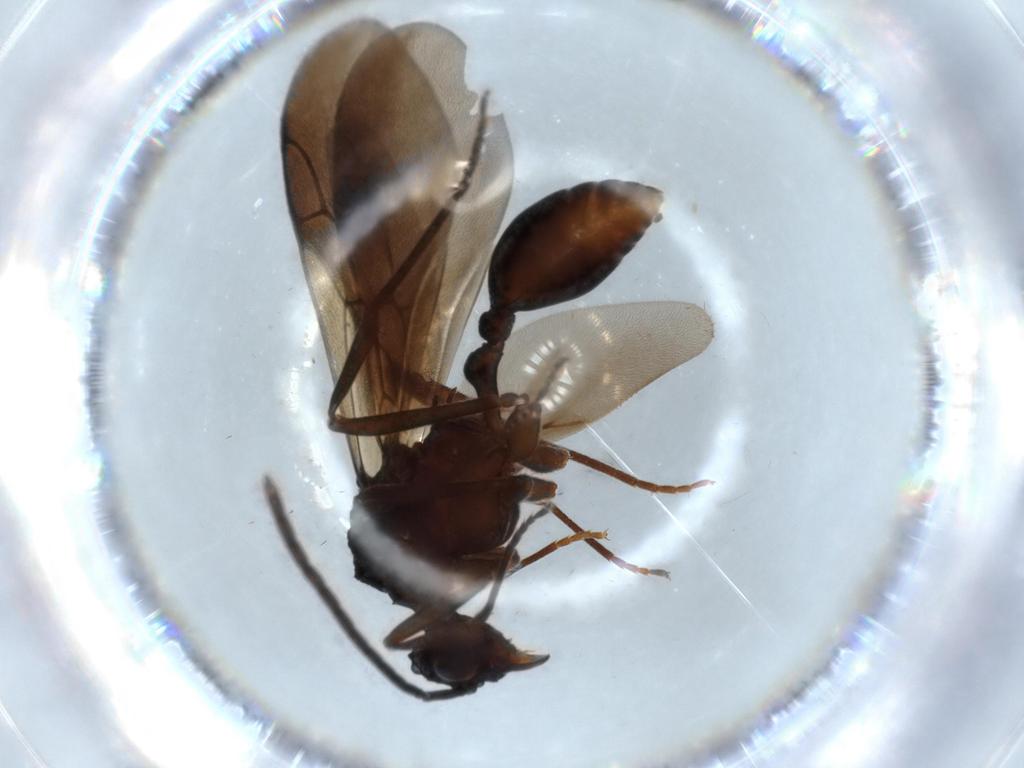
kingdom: Animalia
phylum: Arthropoda
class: Insecta
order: Hymenoptera
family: Formicidae
